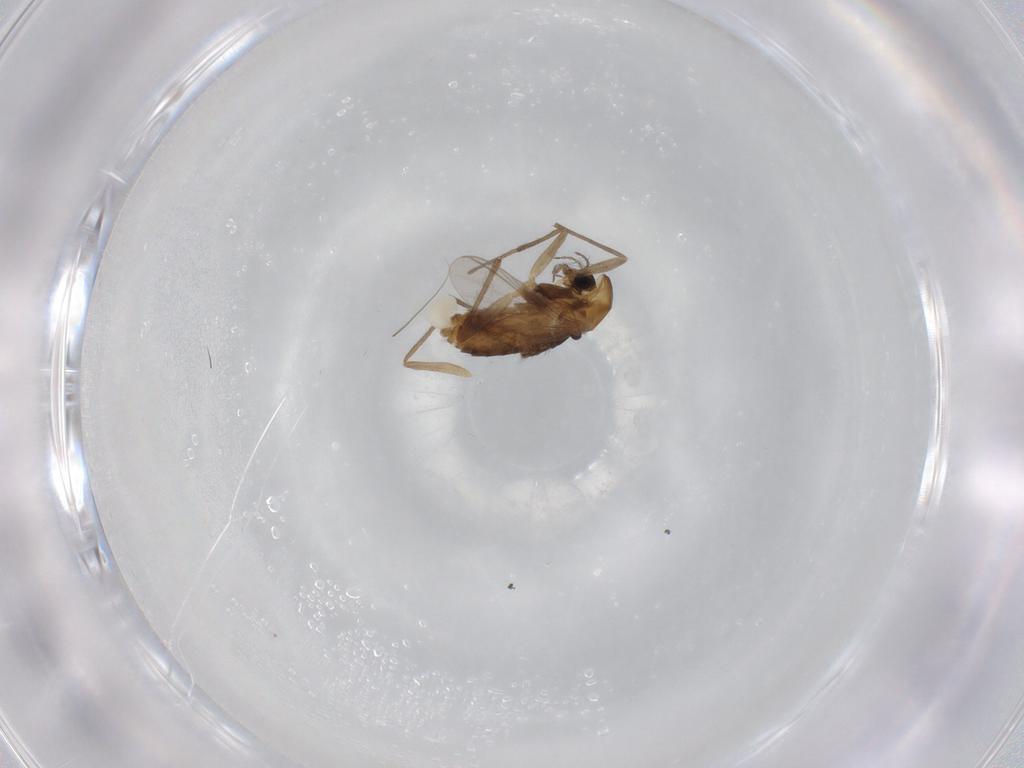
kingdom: Animalia
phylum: Arthropoda
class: Insecta
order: Diptera
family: Chironomidae
